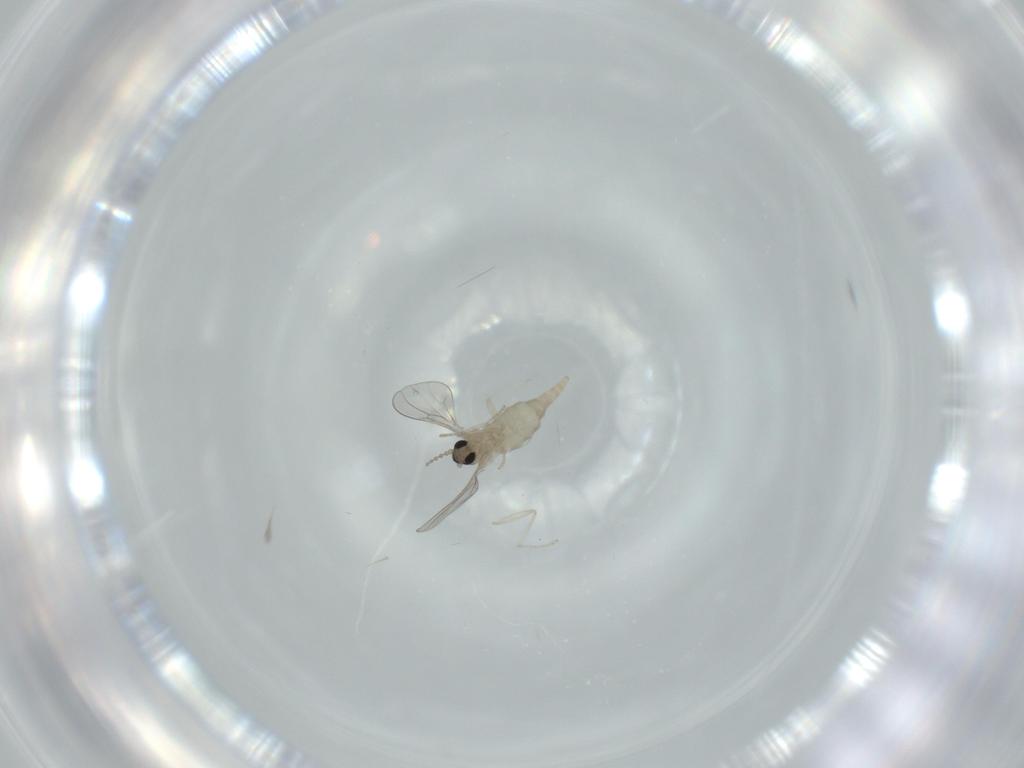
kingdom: Animalia
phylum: Arthropoda
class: Insecta
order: Diptera
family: Cecidomyiidae
